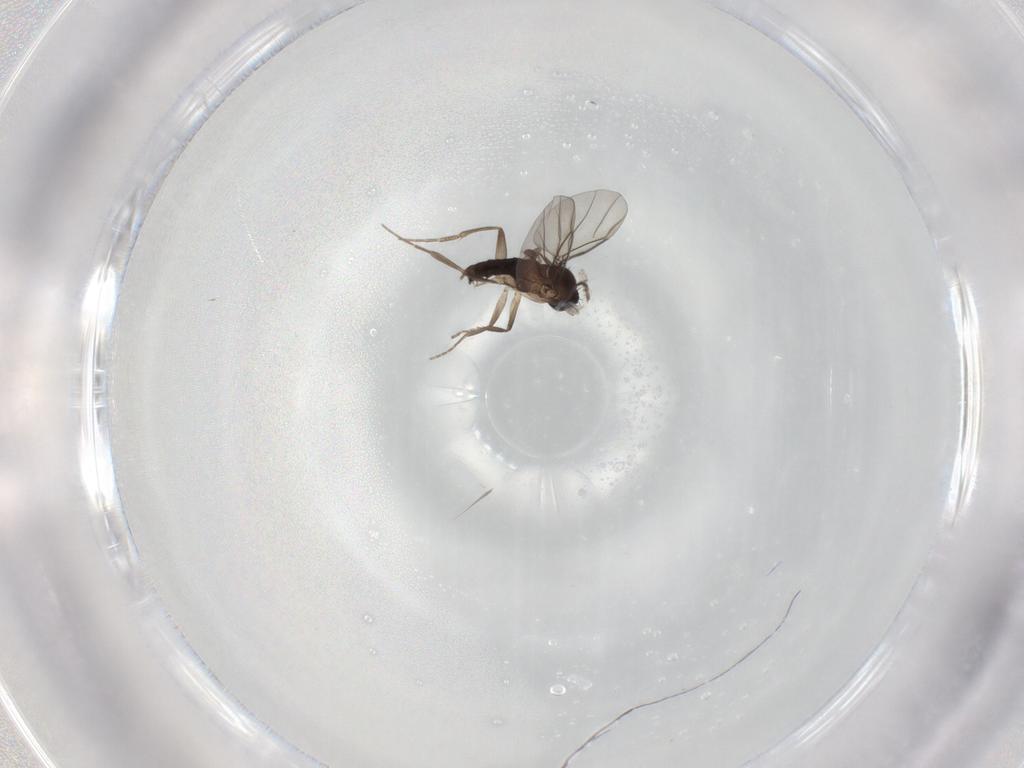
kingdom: Animalia
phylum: Arthropoda
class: Insecta
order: Diptera
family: Sciaridae
